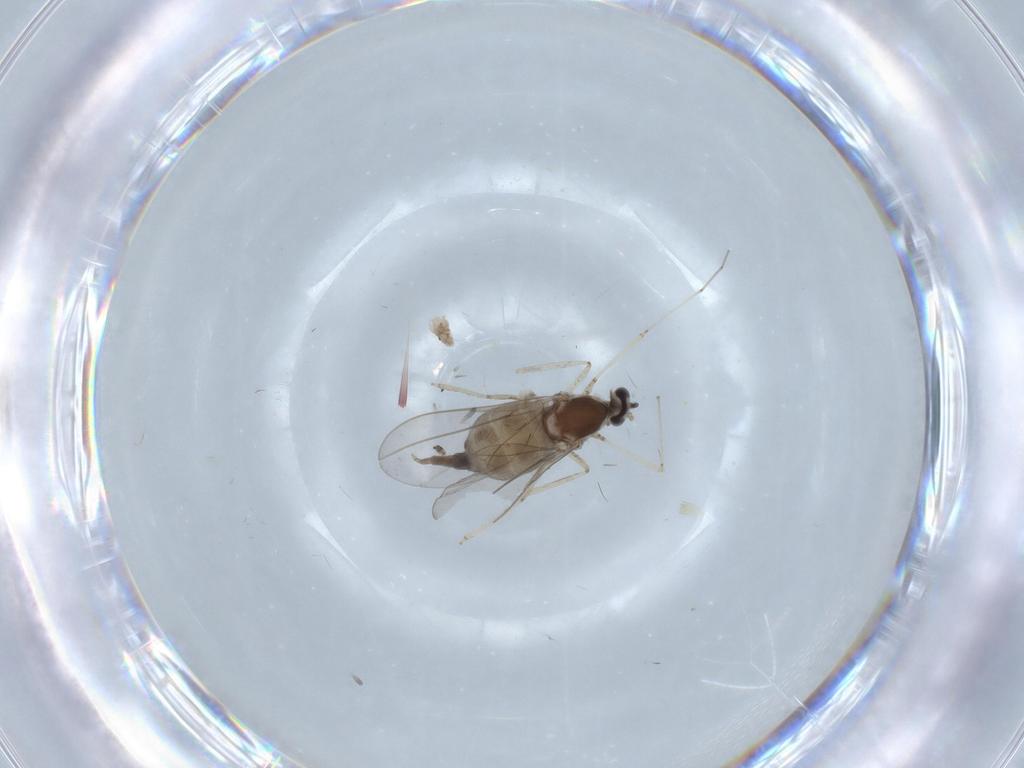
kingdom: Animalia
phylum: Arthropoda
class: Insecta
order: Diptera
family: Cecidomyiidae
